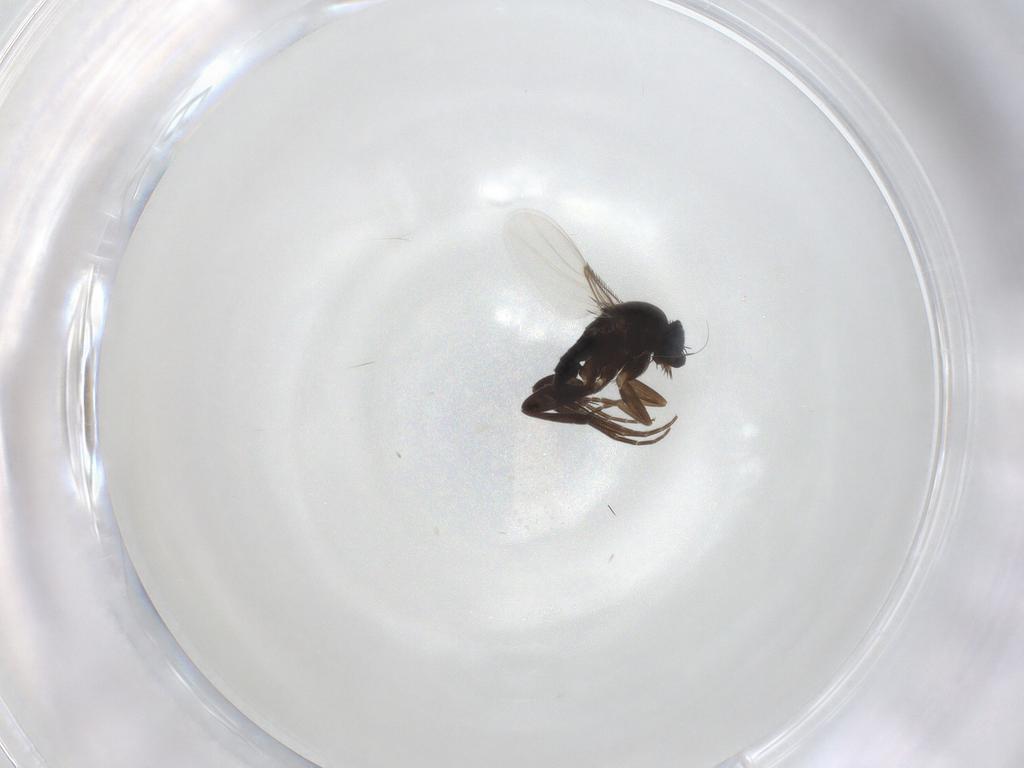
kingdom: Animalia
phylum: Arthropoda
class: Insecta
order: Diptera
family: Phoridae
